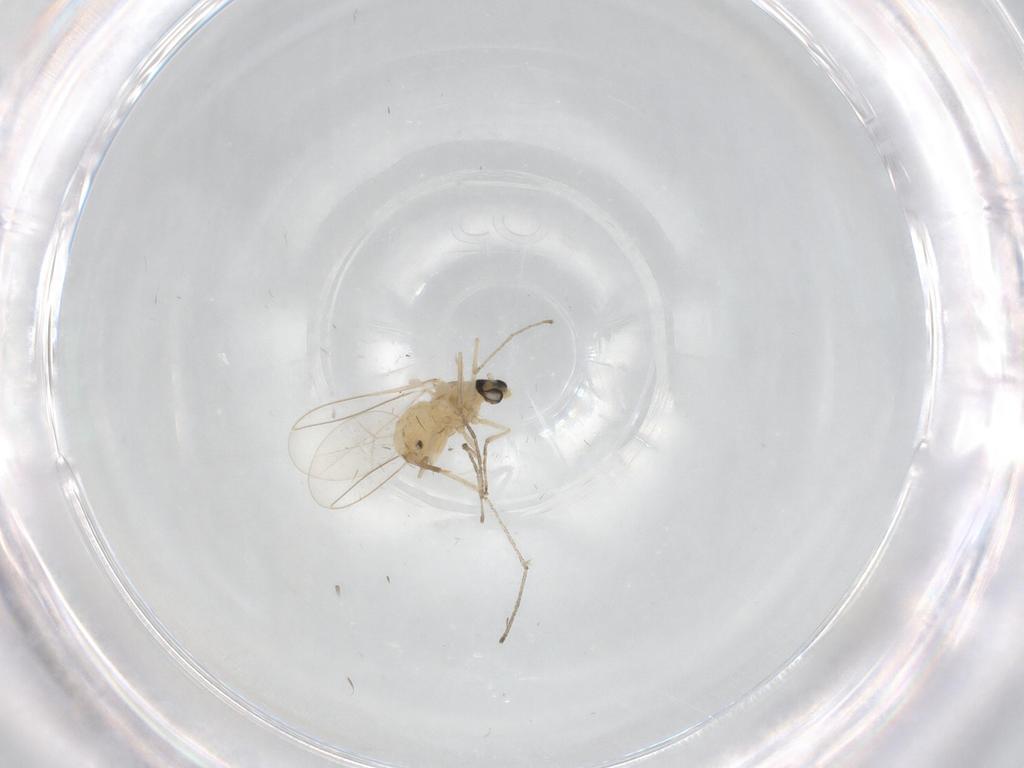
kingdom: Animalia
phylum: Arthropoda
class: Insecta
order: Diptera
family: Cecidomyiidae
